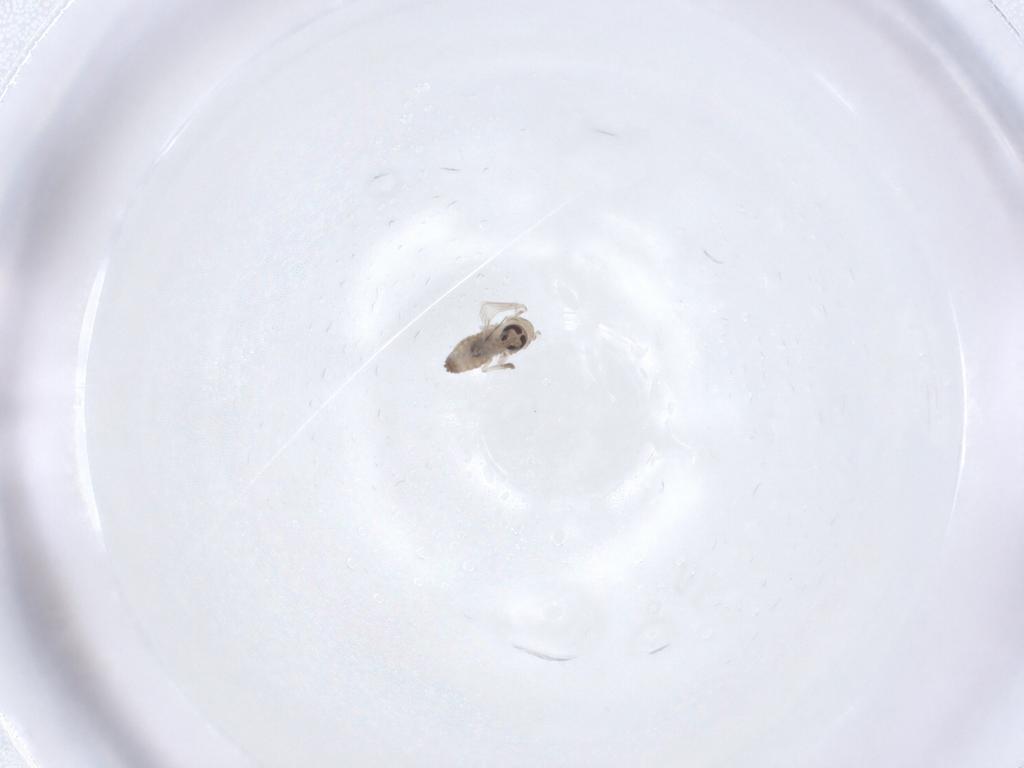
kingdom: Animalia
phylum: Arthropoda
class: Insecta
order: Diptera
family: Psychodidae
